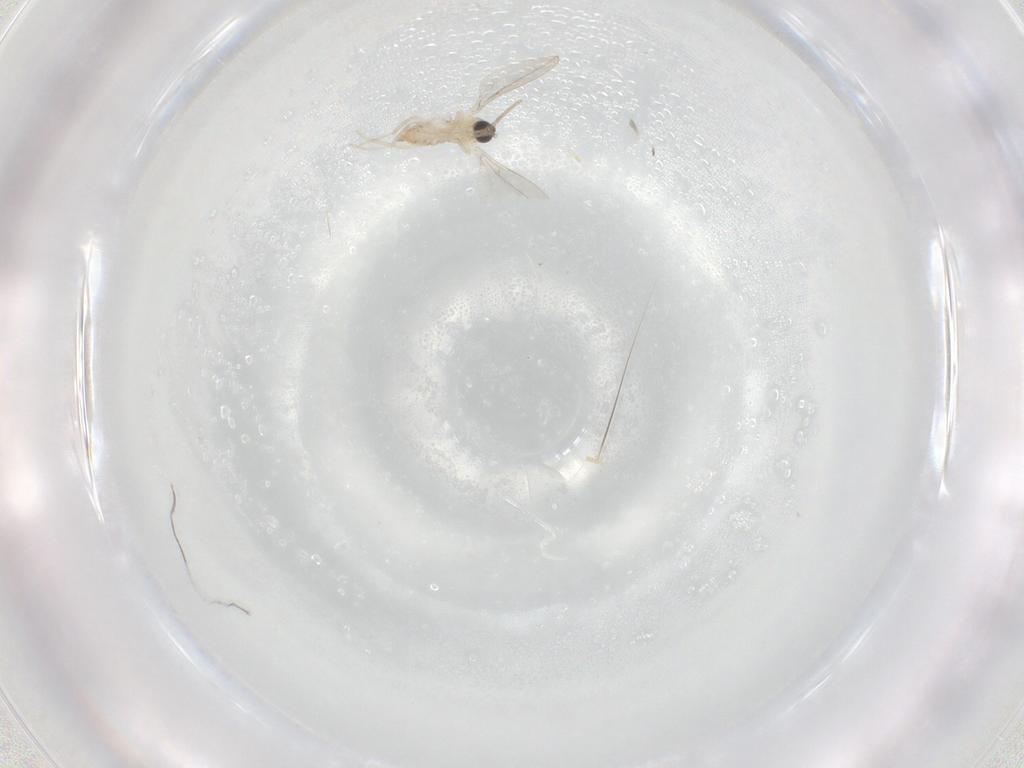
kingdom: Animalia
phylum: Arthropoda
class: Insecta
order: Diptera
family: Cecidomyiidae
